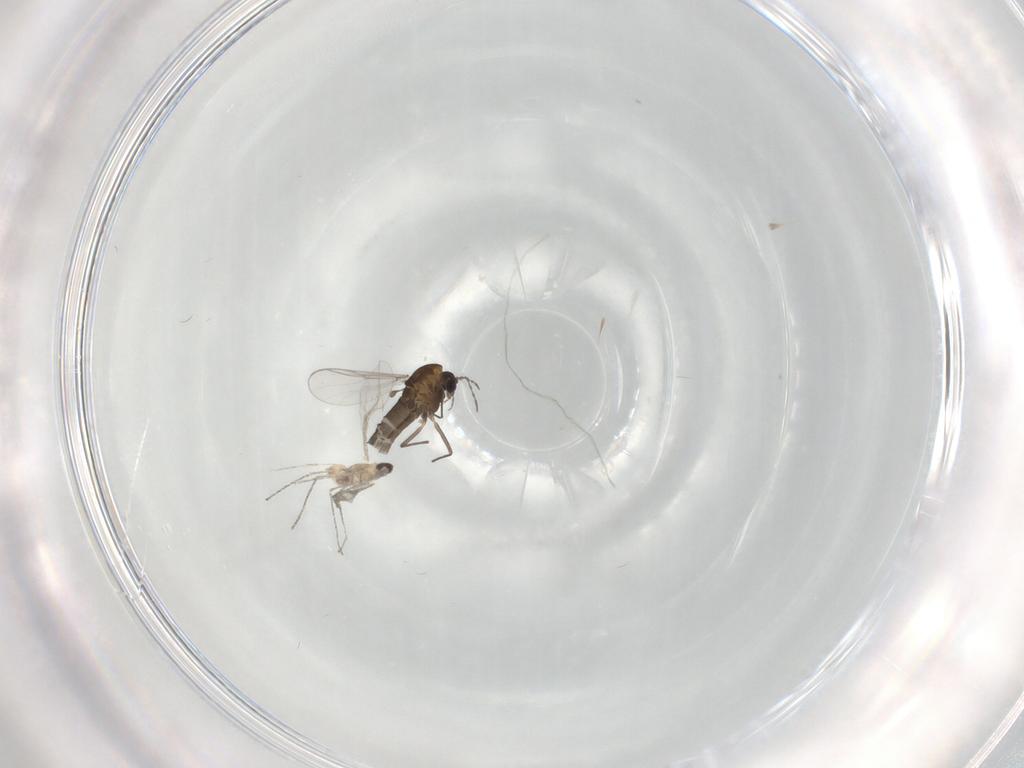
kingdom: Animalia
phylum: Arthropoda
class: Insecta
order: Diptera
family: Chironomidae
